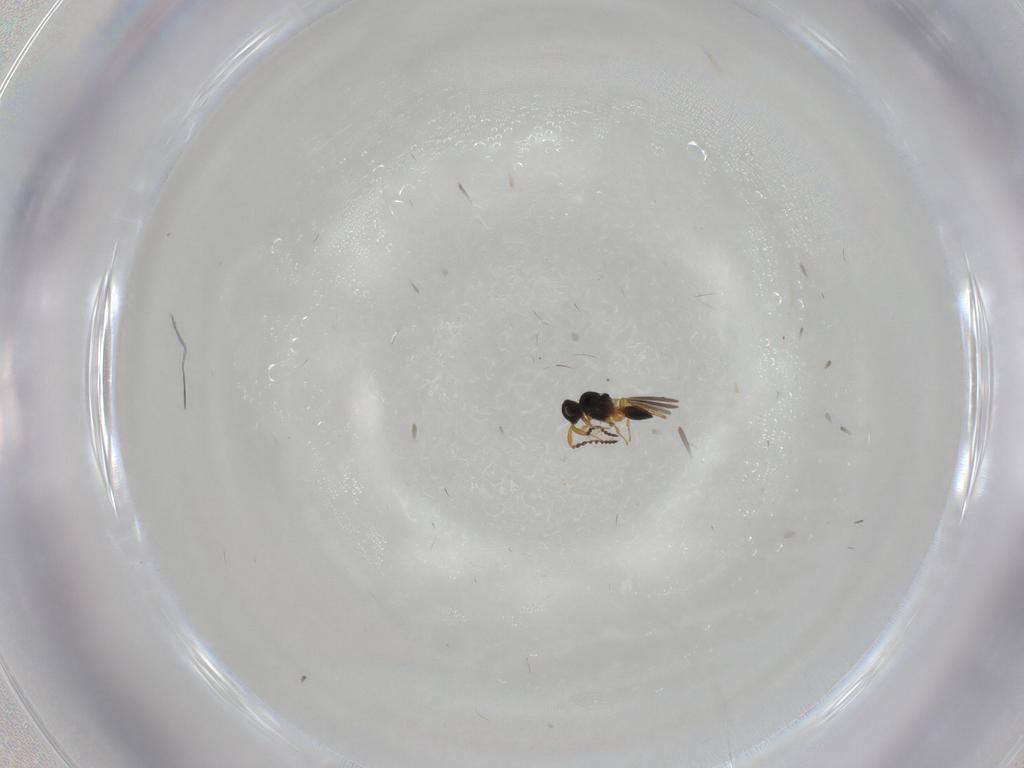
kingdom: Animalia
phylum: Arthropoda
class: Insecta
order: Hymenoptera
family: Platygastridae
